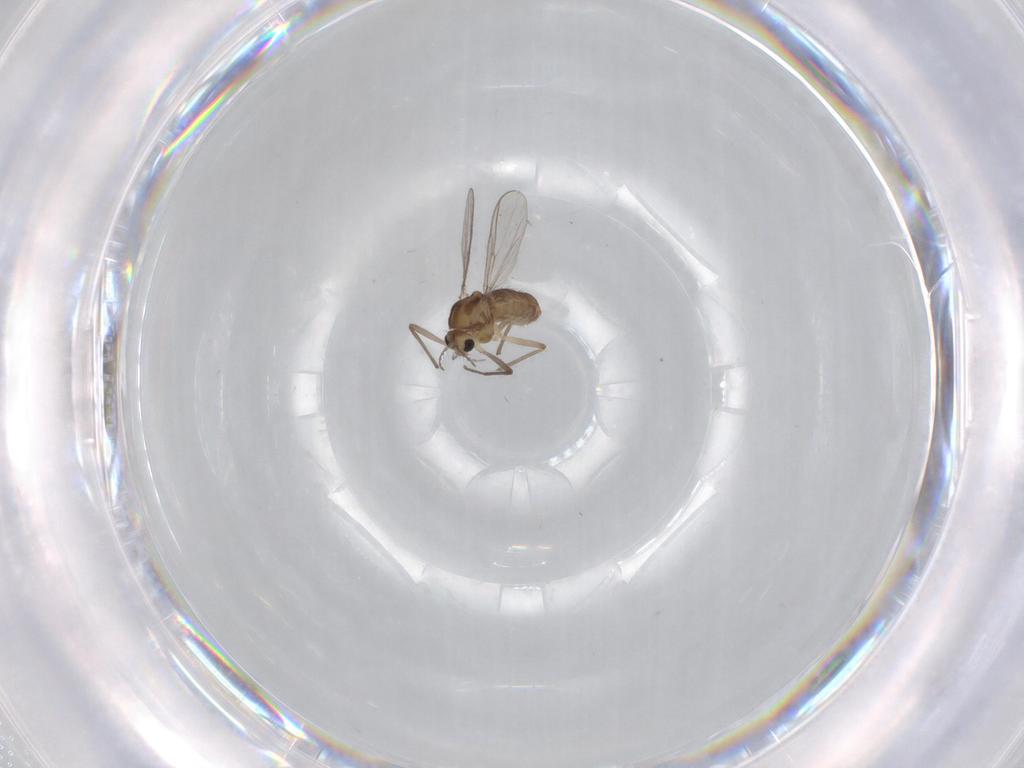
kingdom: Animalia
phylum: Arthropoda
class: Insecta
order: Diptera
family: Chironomidae
